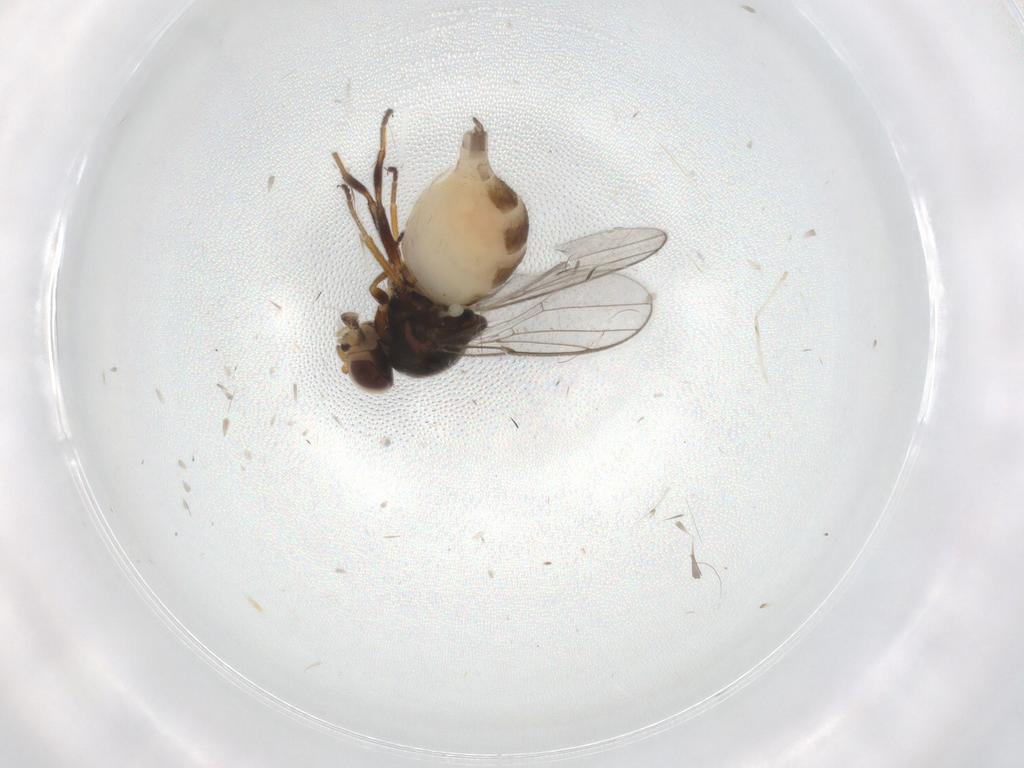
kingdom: Animalia
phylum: Arthropoda
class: Insecta
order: Diptera
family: Chloropidae
